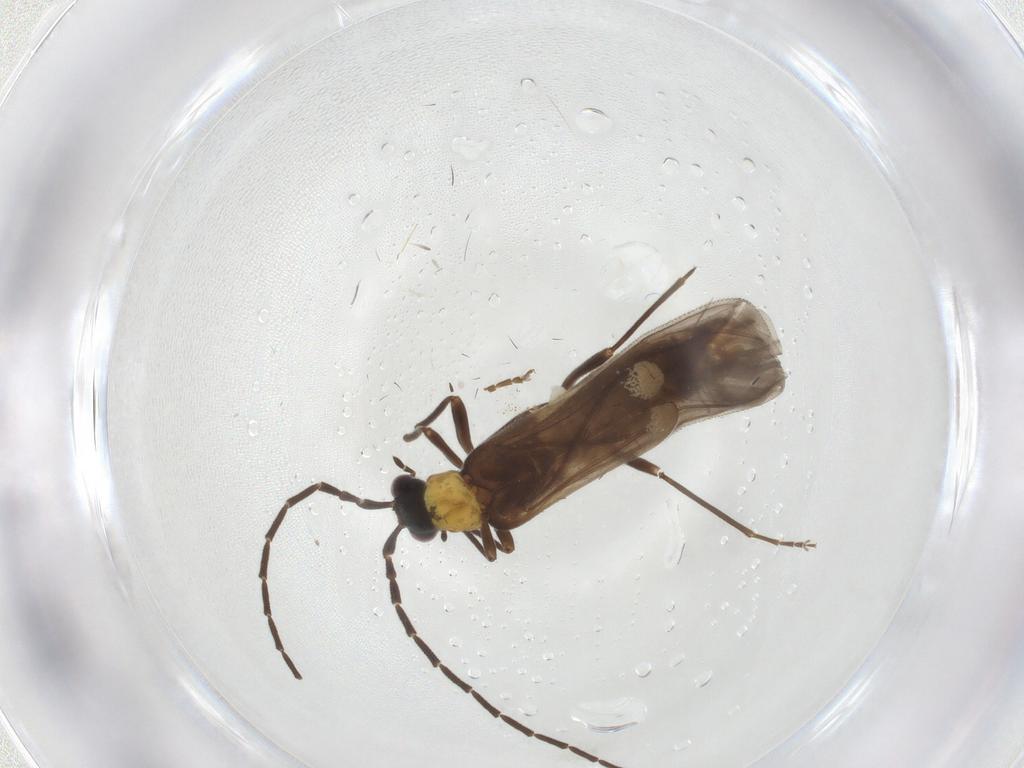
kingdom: Animalia
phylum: Arthropoda
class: Insecta
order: Coleoptera
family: Cantharidae
